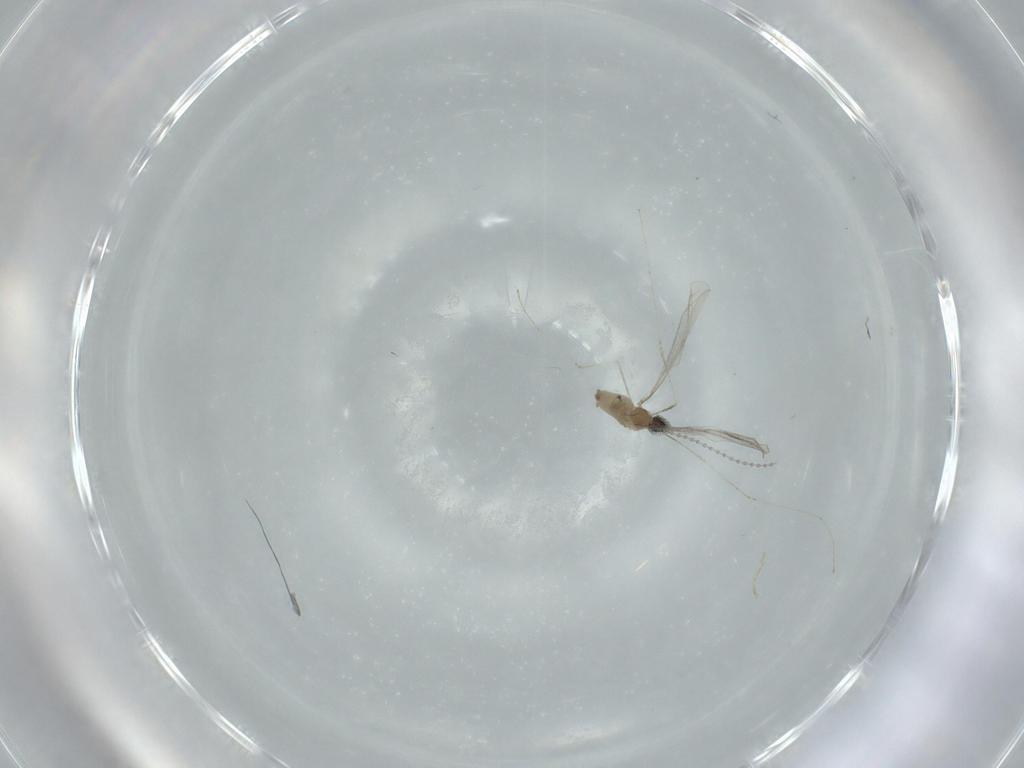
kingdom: Animalia
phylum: Arthropoda
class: Insecta
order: Diptera
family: Cecidomyiidae
